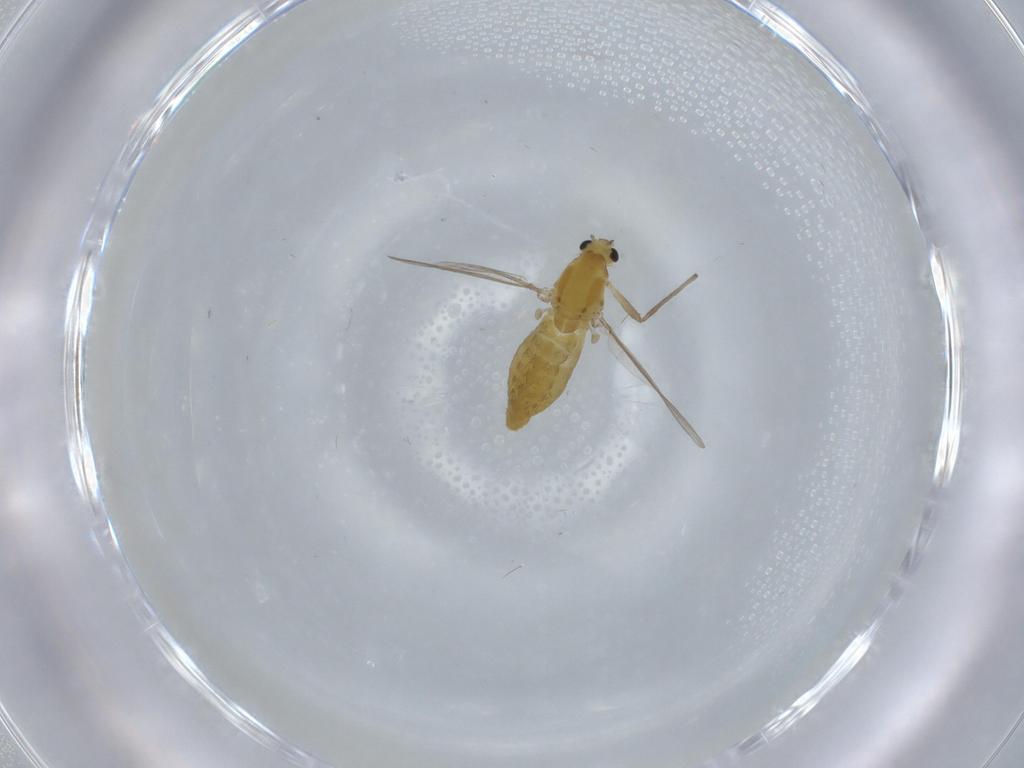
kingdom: Animalia
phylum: Arthropoda
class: Insecta
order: Diptera
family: Chironomidae
